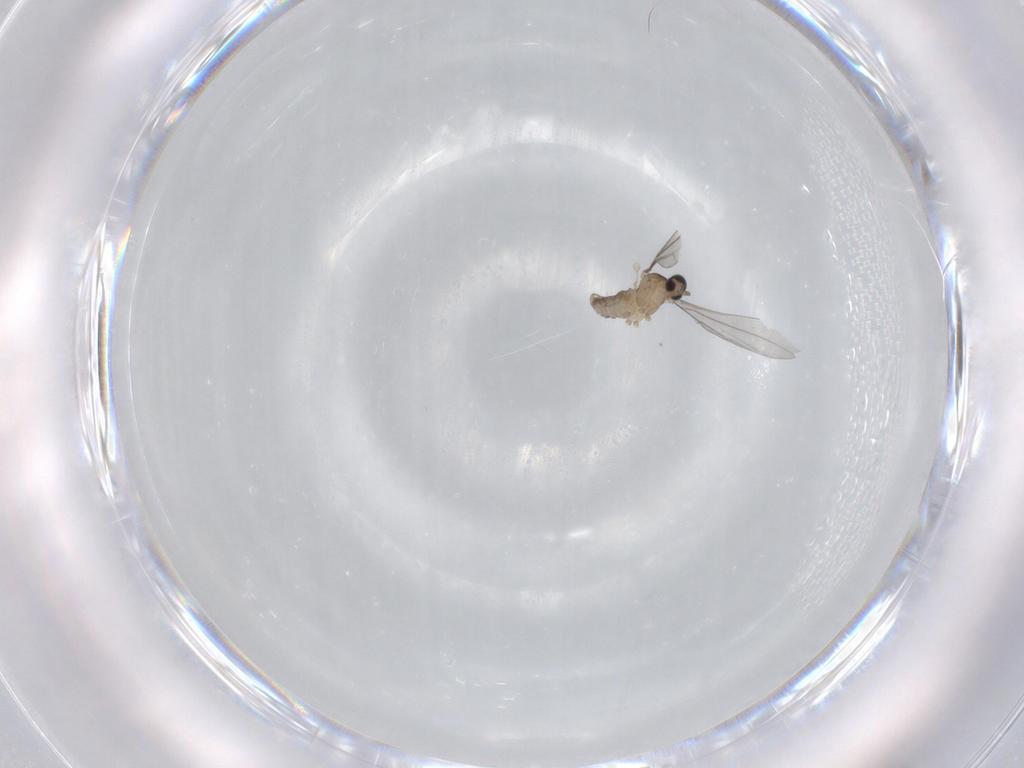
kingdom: Animalia
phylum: Arthropoda
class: Insecta
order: Diptera
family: Cecidomyiidae
